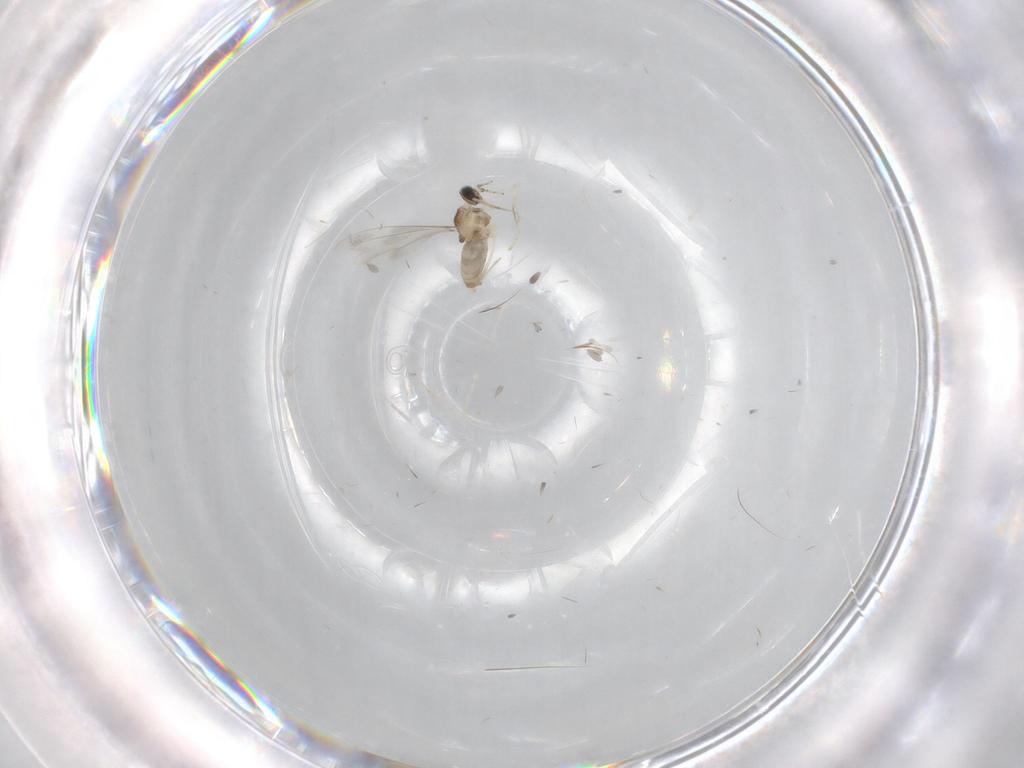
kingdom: Animalia
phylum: Arthropoda
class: Insecta
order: Diptera
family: Cecidomyiidae
